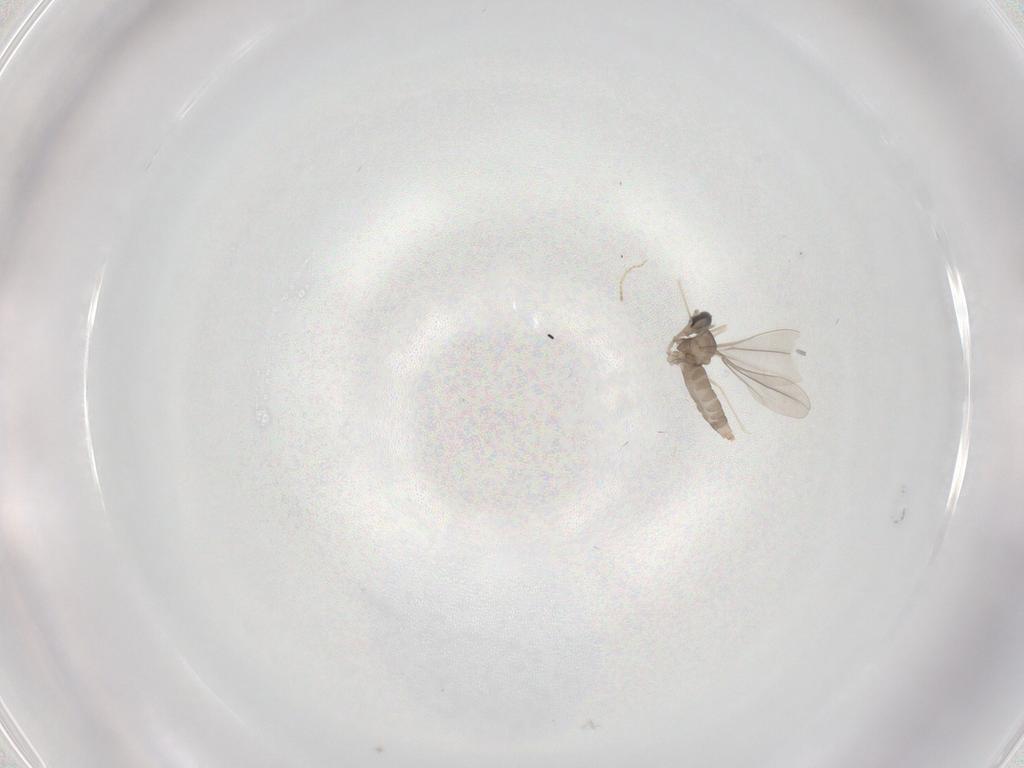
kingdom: Animalia
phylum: Arthropoda
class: Insecta
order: Diptera
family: Cecidomyiidae
